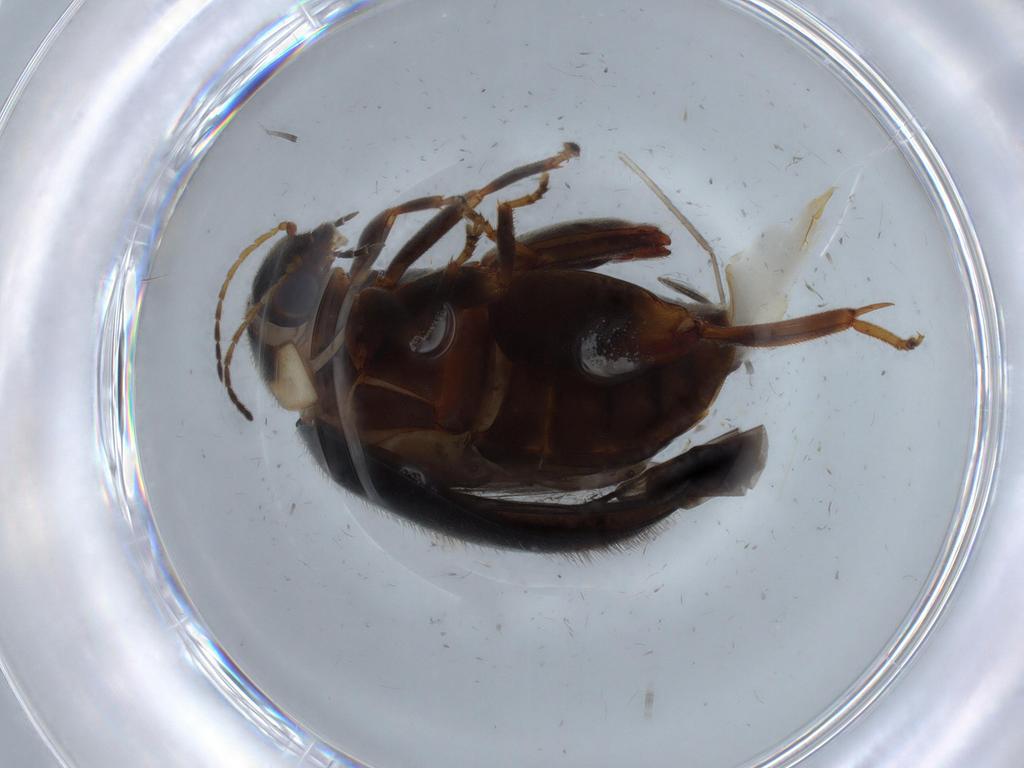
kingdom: Animalia
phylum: Arthropoda
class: Insecta
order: Coleoptera
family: Scirtidae
